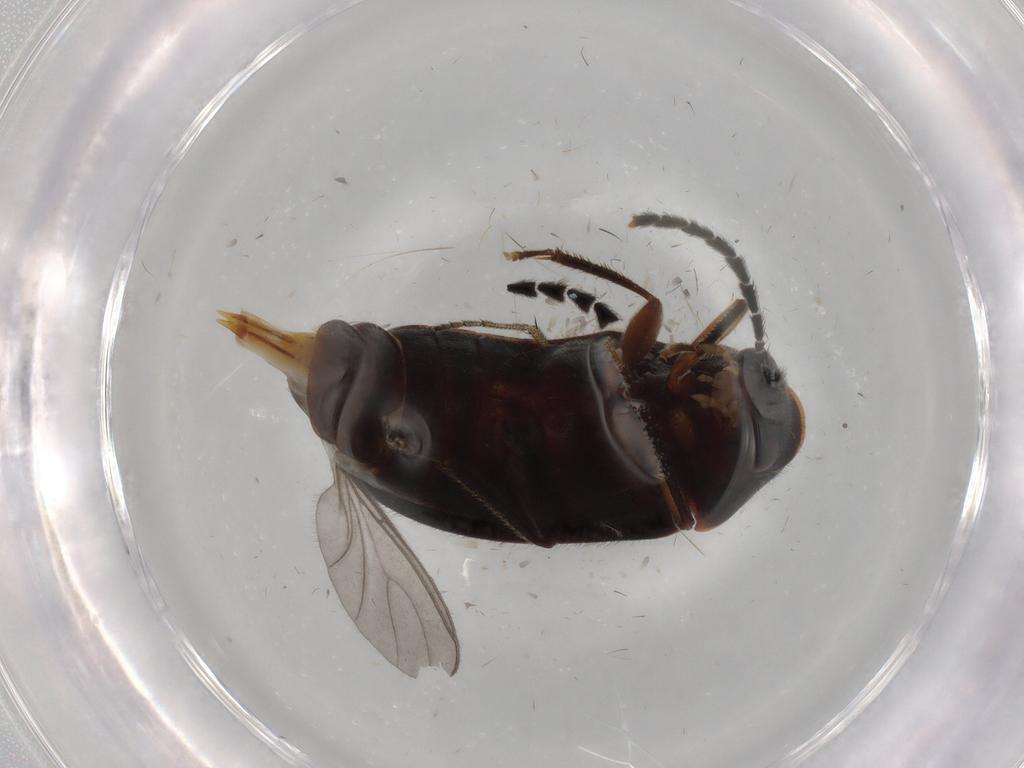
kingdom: Animalia
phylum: Arthropoda
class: Insecta
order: Coleoptera
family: Ptilodactylidae
